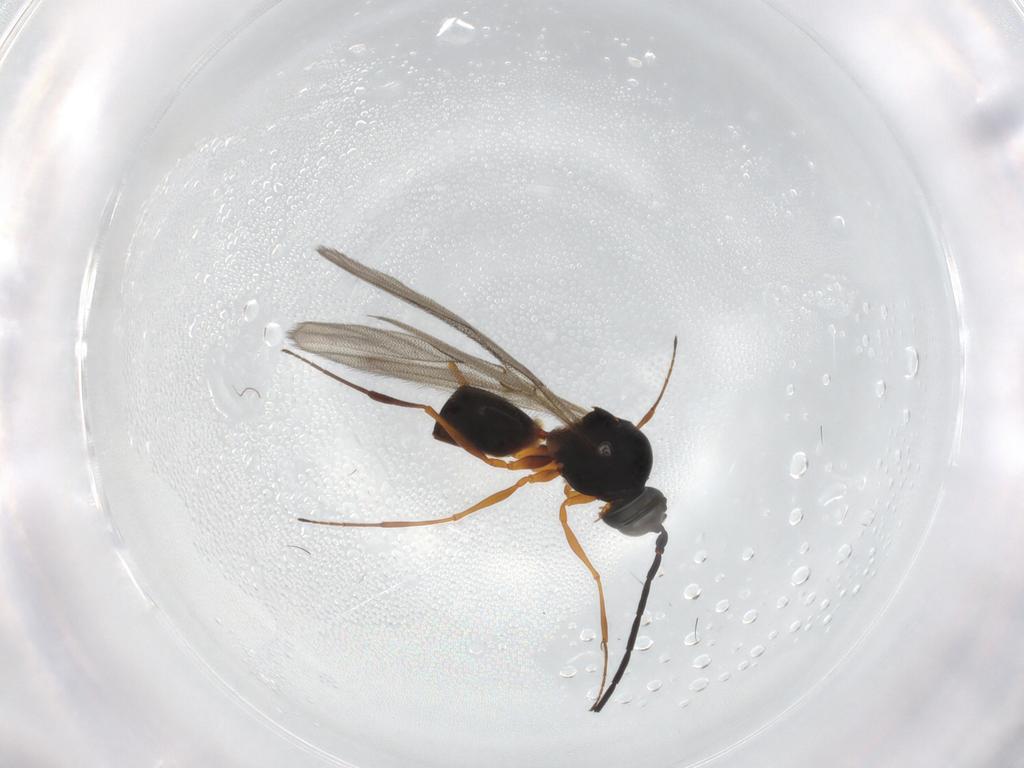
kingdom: Animalia
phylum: Arthropoda
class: Insecta
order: Hymenoptera
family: Figitidae
